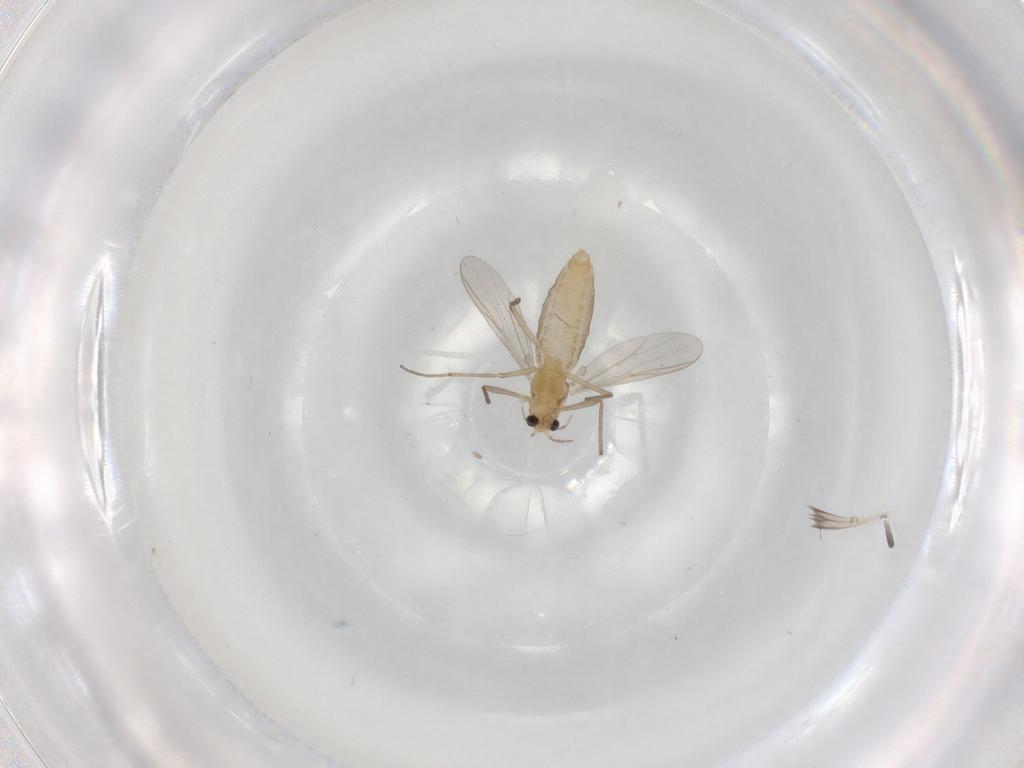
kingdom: Animalia
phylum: Arthropoda
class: Insecta
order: Diptera
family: Chironomidae
